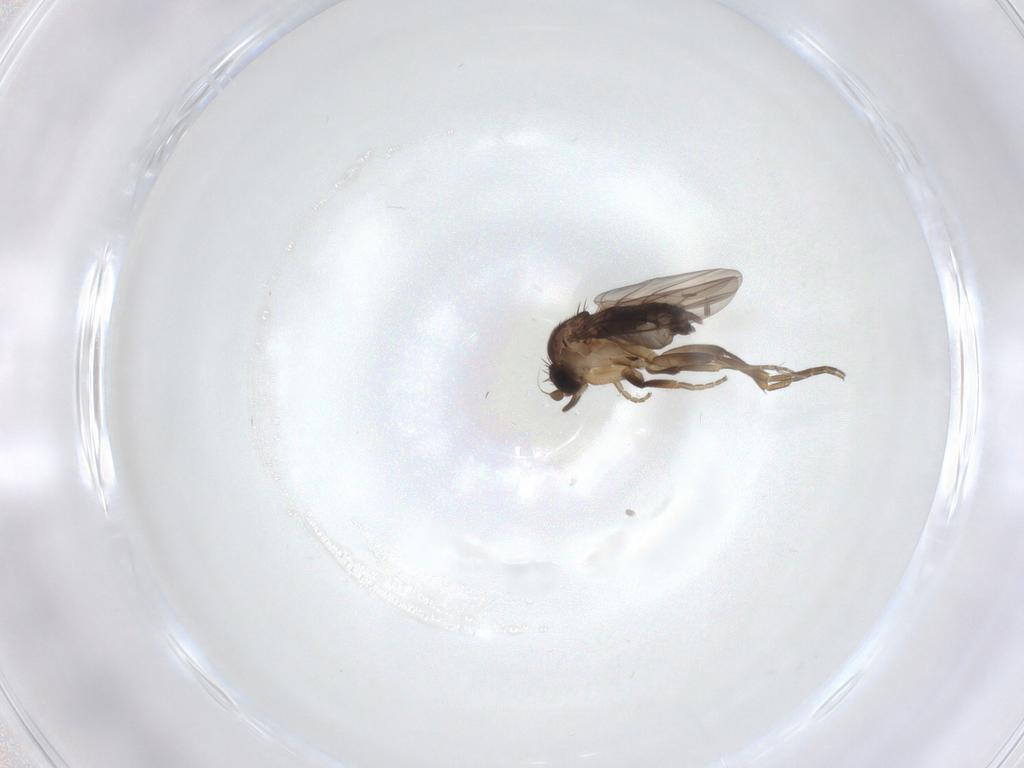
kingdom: Animalia
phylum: Arthropoda
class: Insecta
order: Diptera
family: Phoridae
